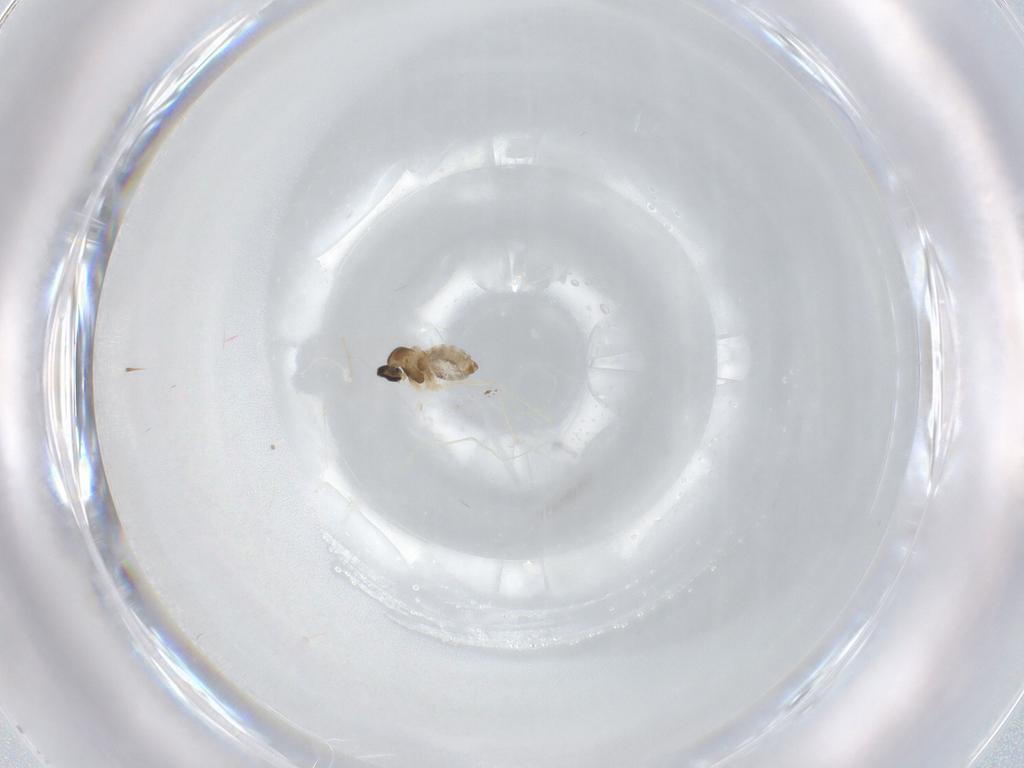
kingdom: Animalia
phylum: Arthropoda
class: Insecta
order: Diptera
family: Cecidomyiidae
